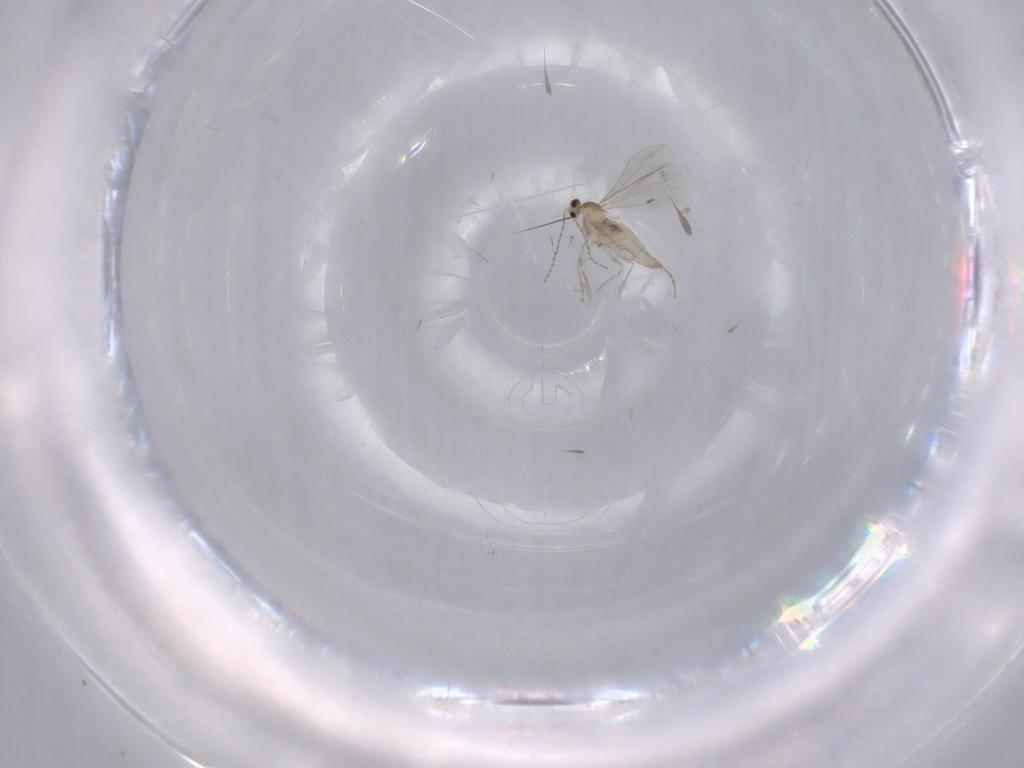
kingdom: Animalia
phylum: Arthropoda
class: Insecta
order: Diptera
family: Cecidomyiidae
